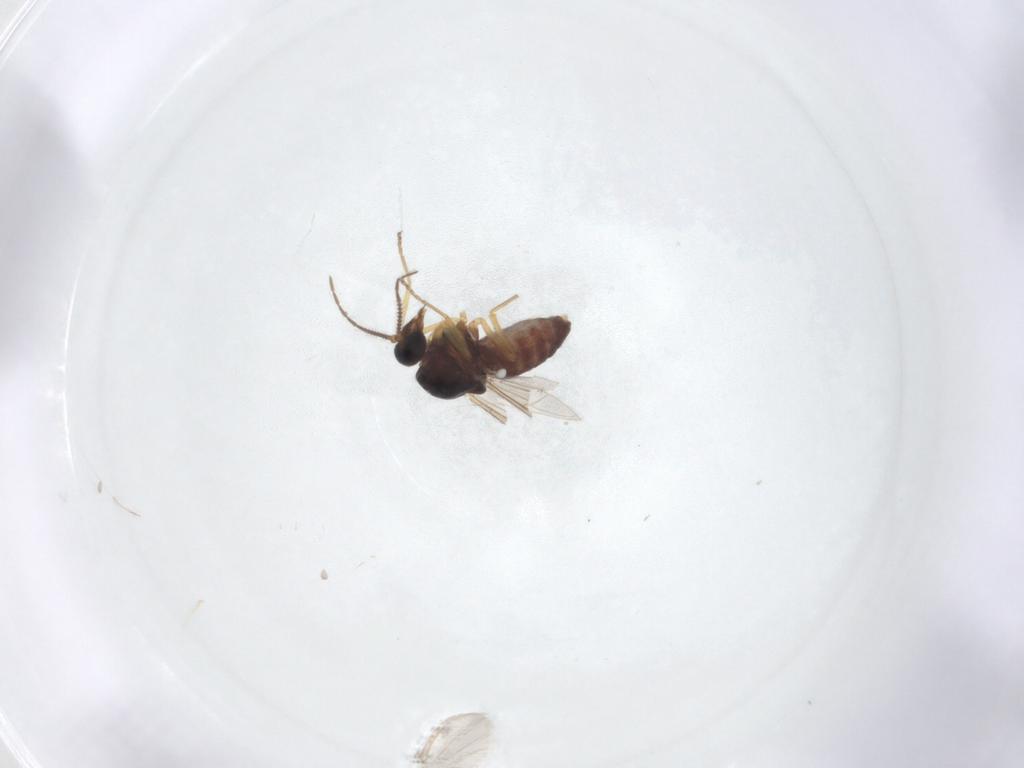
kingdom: Animalia
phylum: Arthropoda
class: Insecta
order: Diptera
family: Ceratopogonidae
